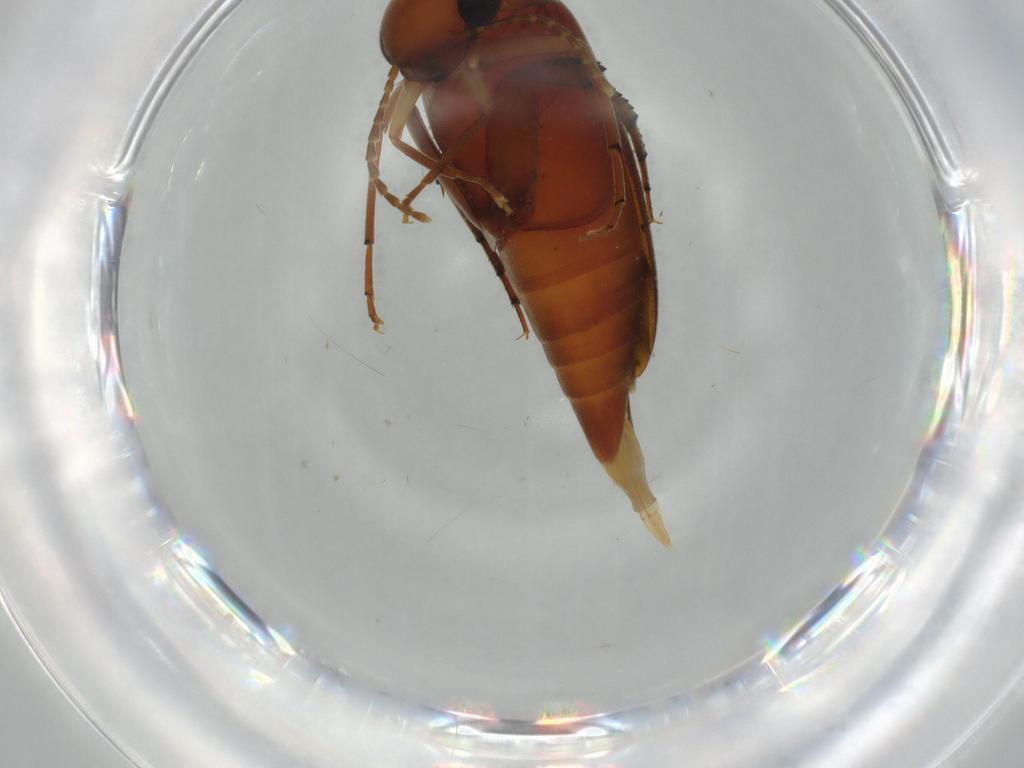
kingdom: Animalia
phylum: Arthropoda
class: Insecta
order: Coleoptera
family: Mordellidae
